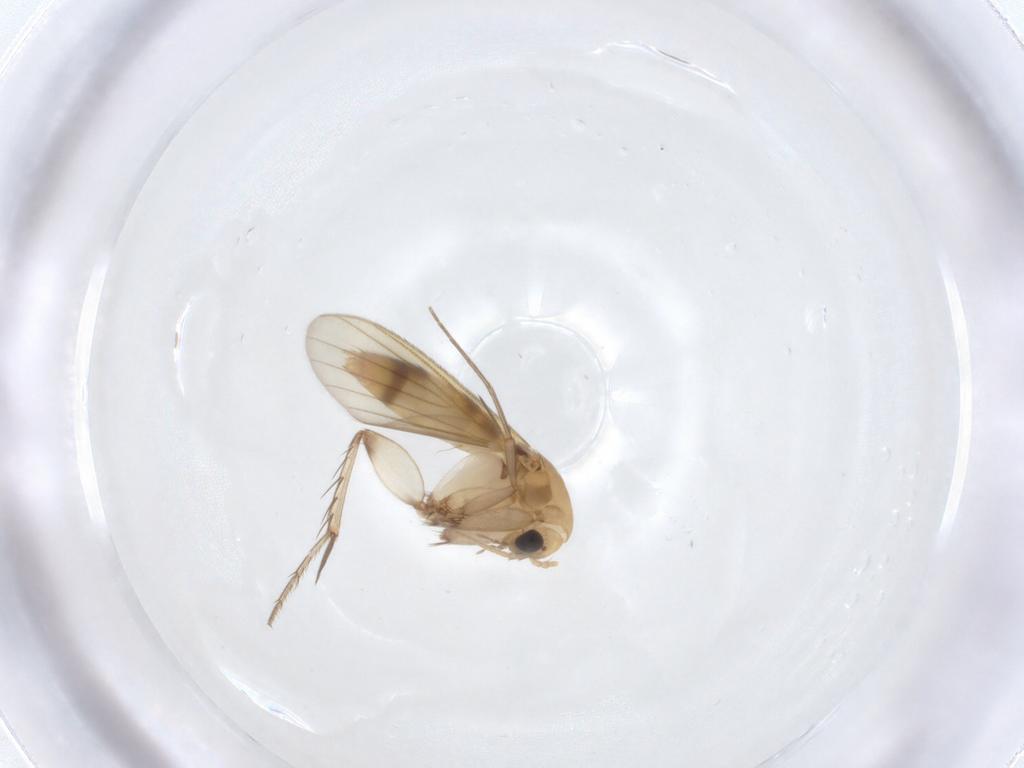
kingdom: Animalia
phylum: Arthropoda
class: Insecta
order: Diptera
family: Mycetophilidae
